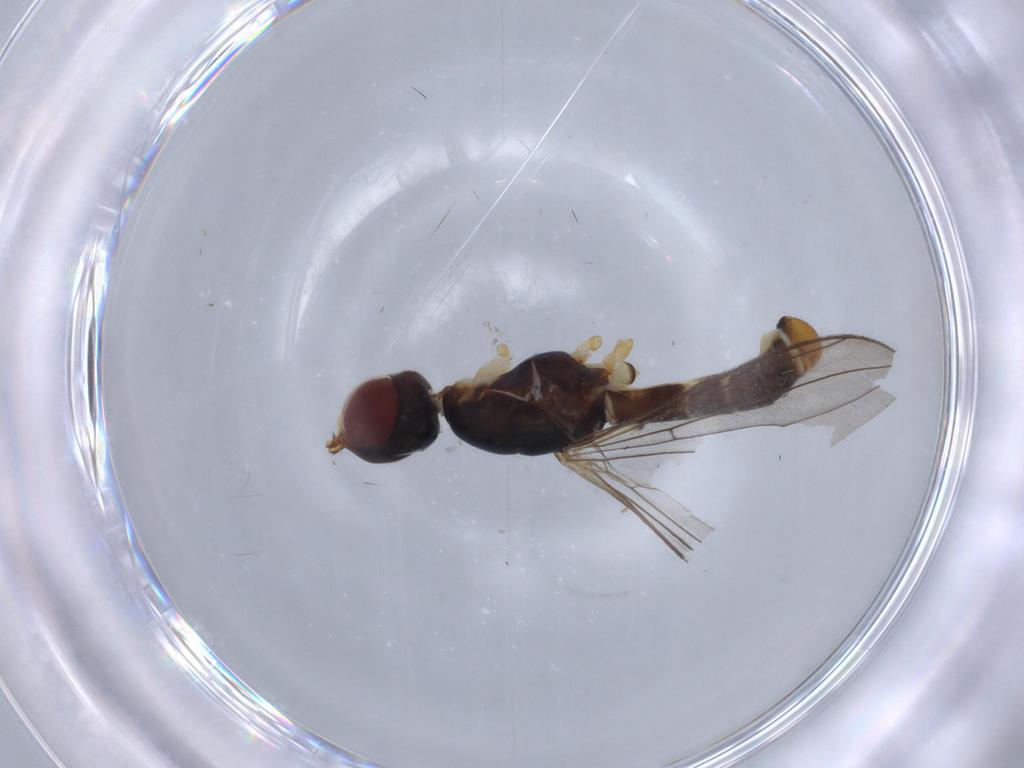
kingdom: Animalia
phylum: Arthropoda
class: Insecta
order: Diptera
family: Micropezidae
